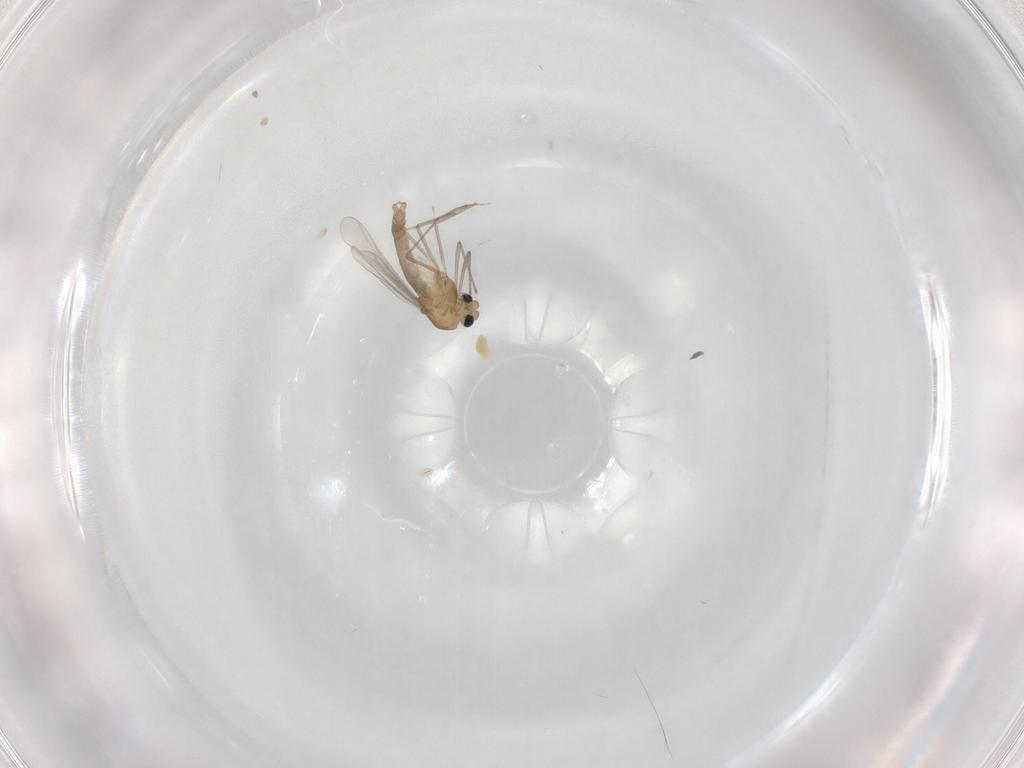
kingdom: Animalia
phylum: Arthropoda
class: Insecta
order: Diptera
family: Chironomidae
